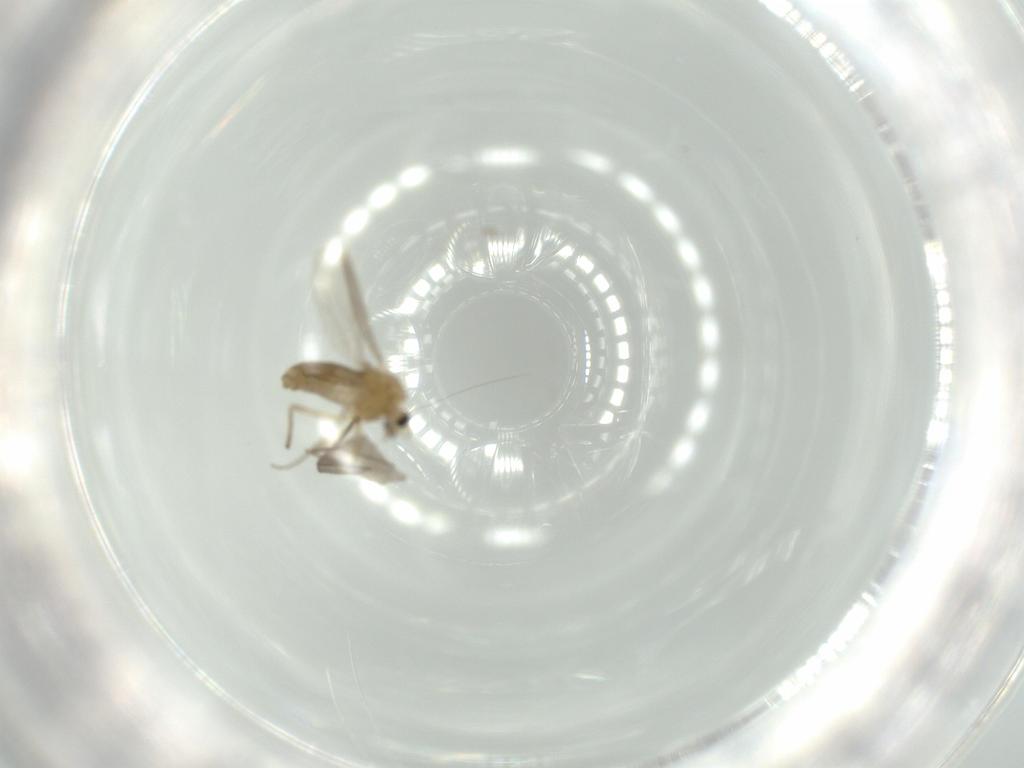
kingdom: Animalia
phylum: Arthropoda
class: Insecta
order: Diptera
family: Chironomidae
